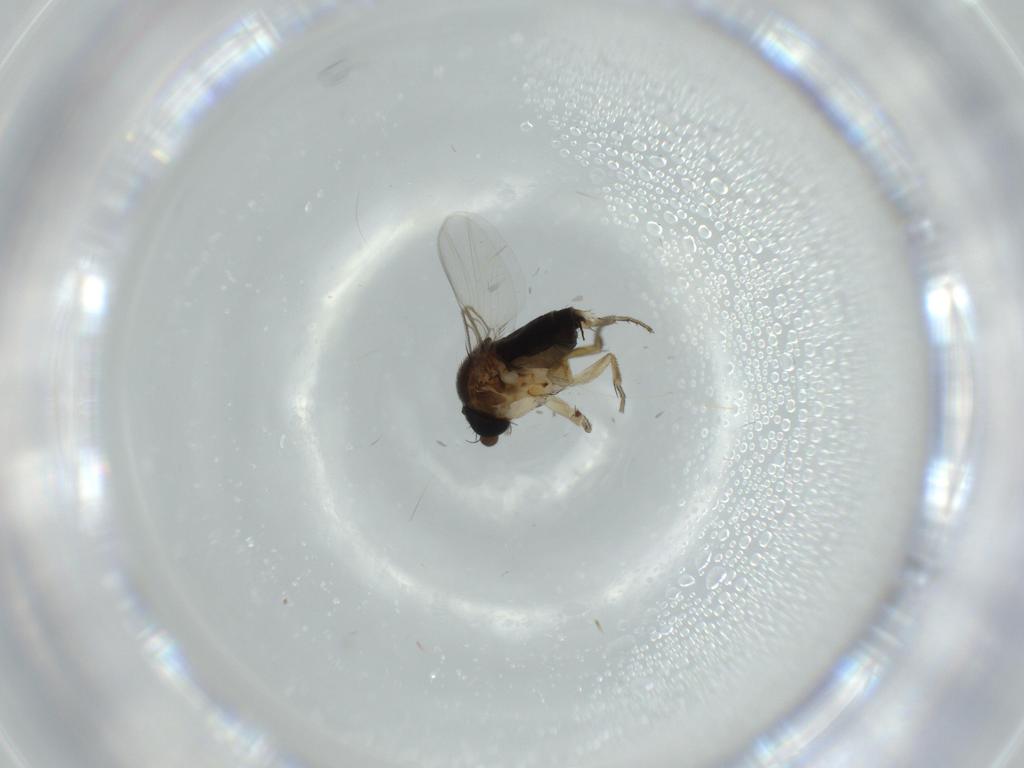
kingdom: Animalia
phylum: Arthropoda
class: Insecta
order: Diptera
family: Phoridae
